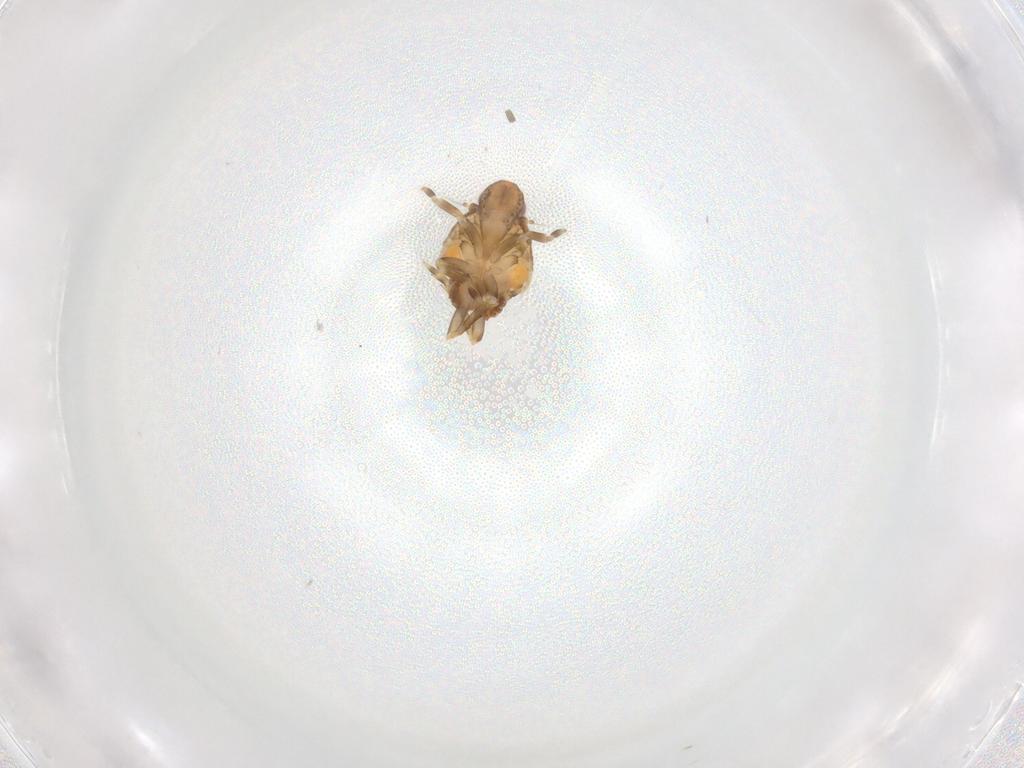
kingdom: Animalia
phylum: Arthropoda
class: Insecta
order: Hemiptera
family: Flatidae
